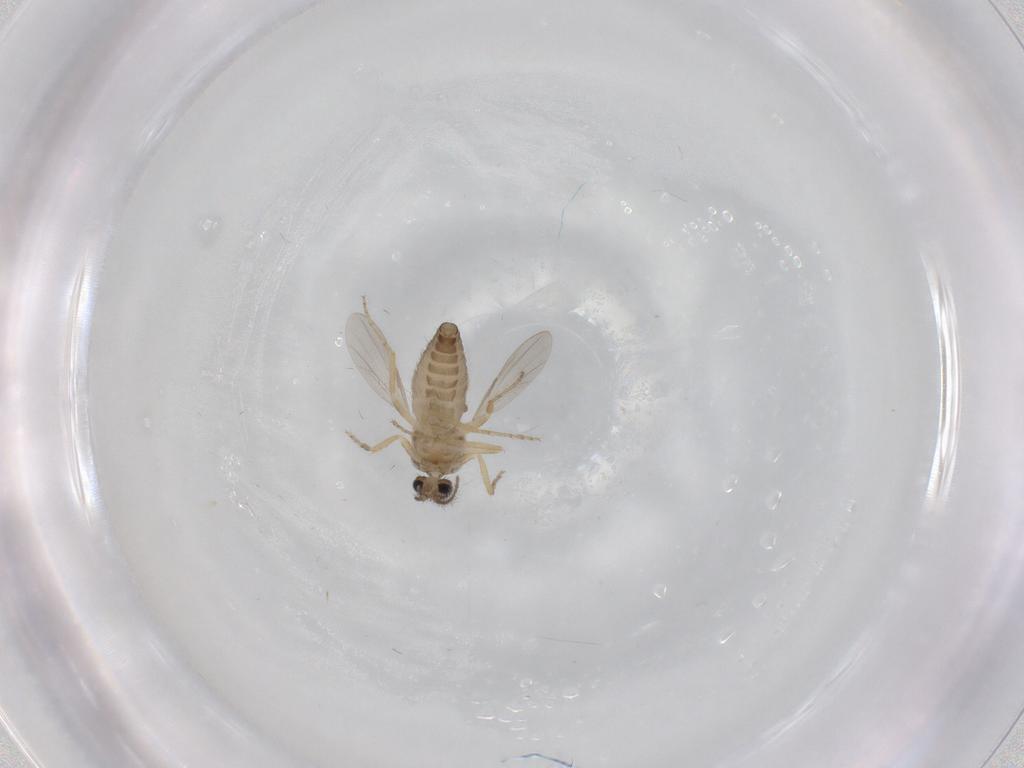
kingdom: Animalia
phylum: Arthropoda
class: Insecta
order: Diptera
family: Ceratopogonidae
